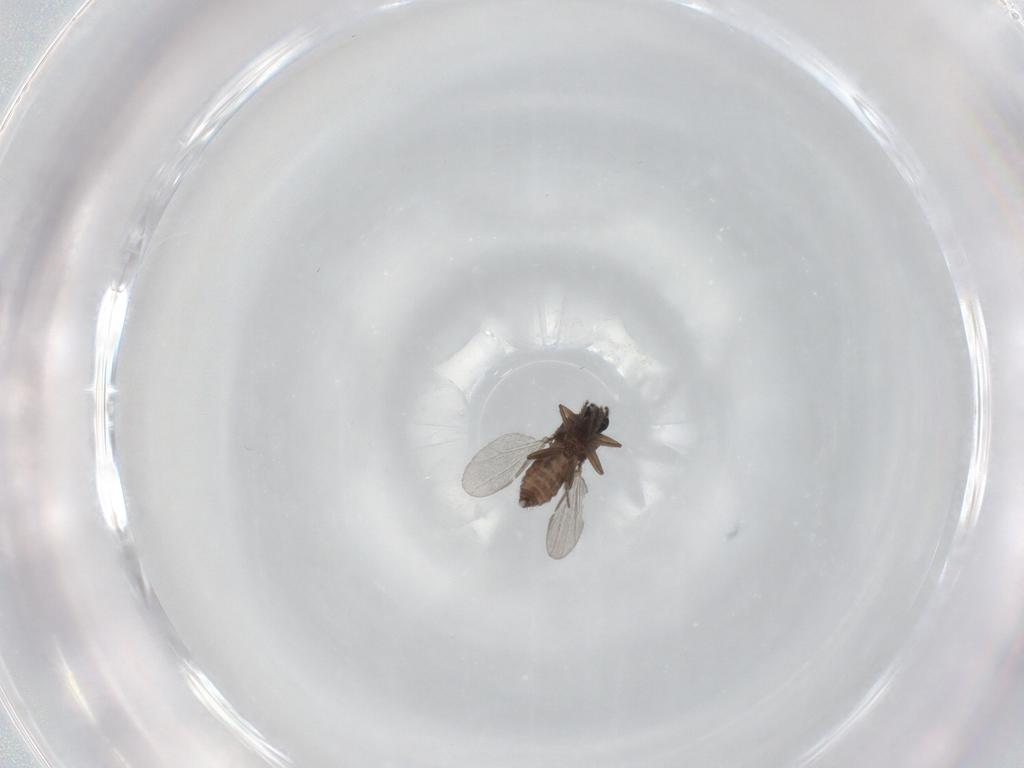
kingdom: Animalia
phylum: Arthropoda
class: Insecta
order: Diptera
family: Ceratopogonidae
